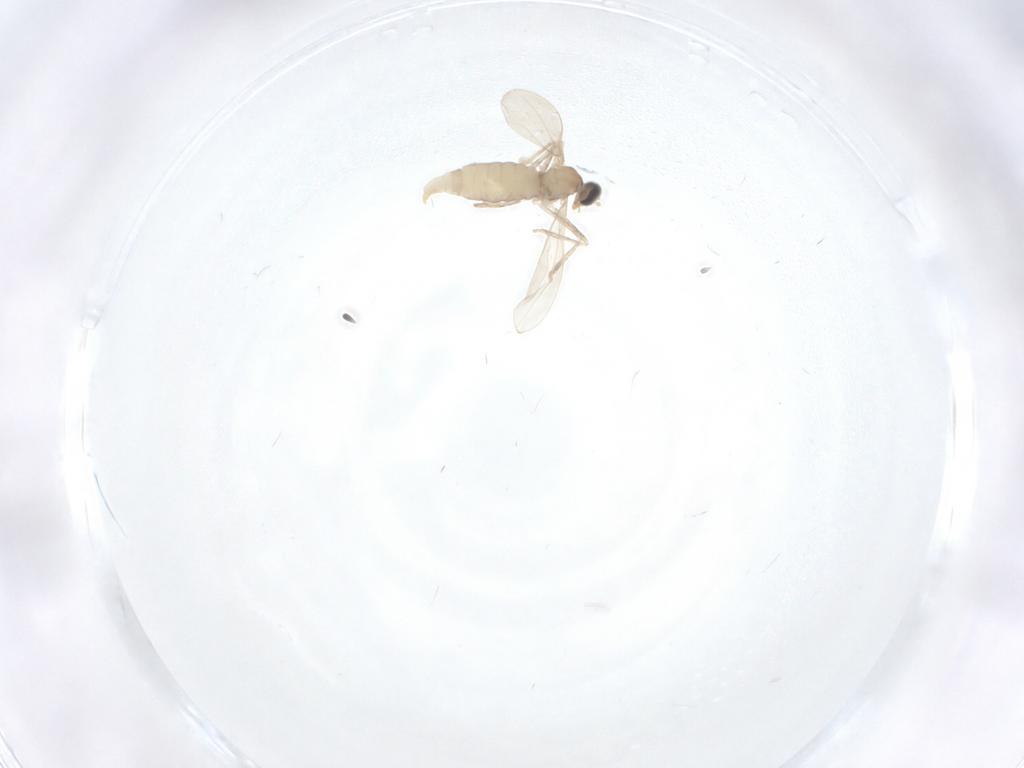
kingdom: Animalia
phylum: Arthropoda
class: Insecta
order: Diptera
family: Cecidomyiidae
